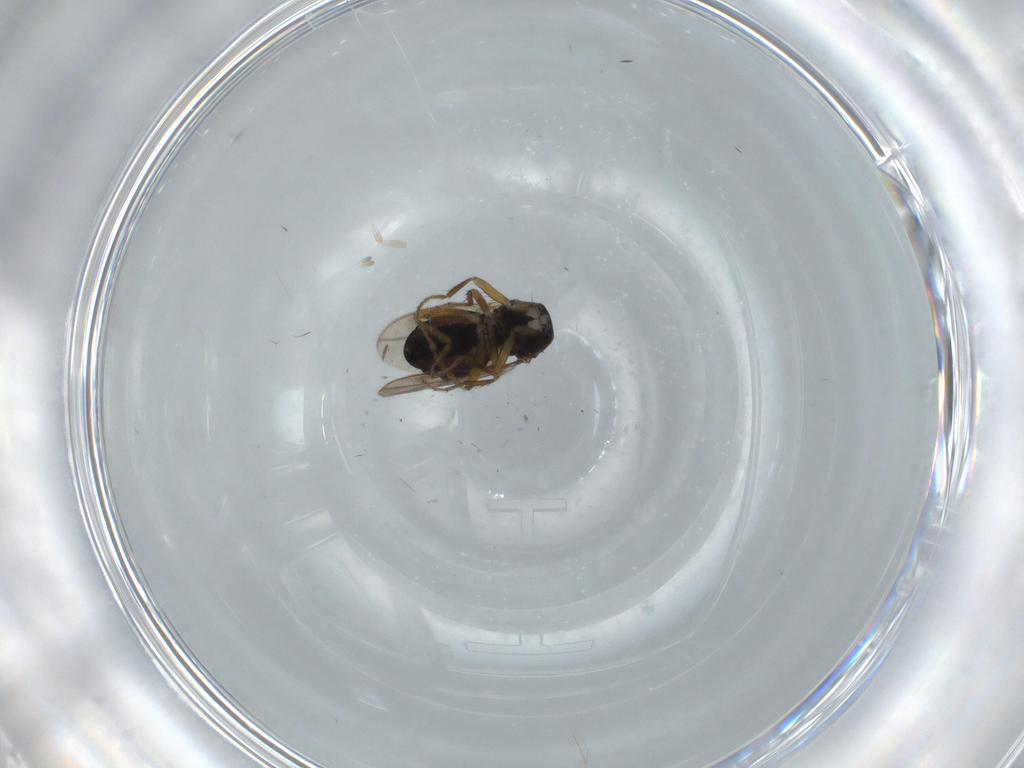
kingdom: Animalia
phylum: Arthropoda
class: Insecta
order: Diptera
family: Sphaeroceridae
